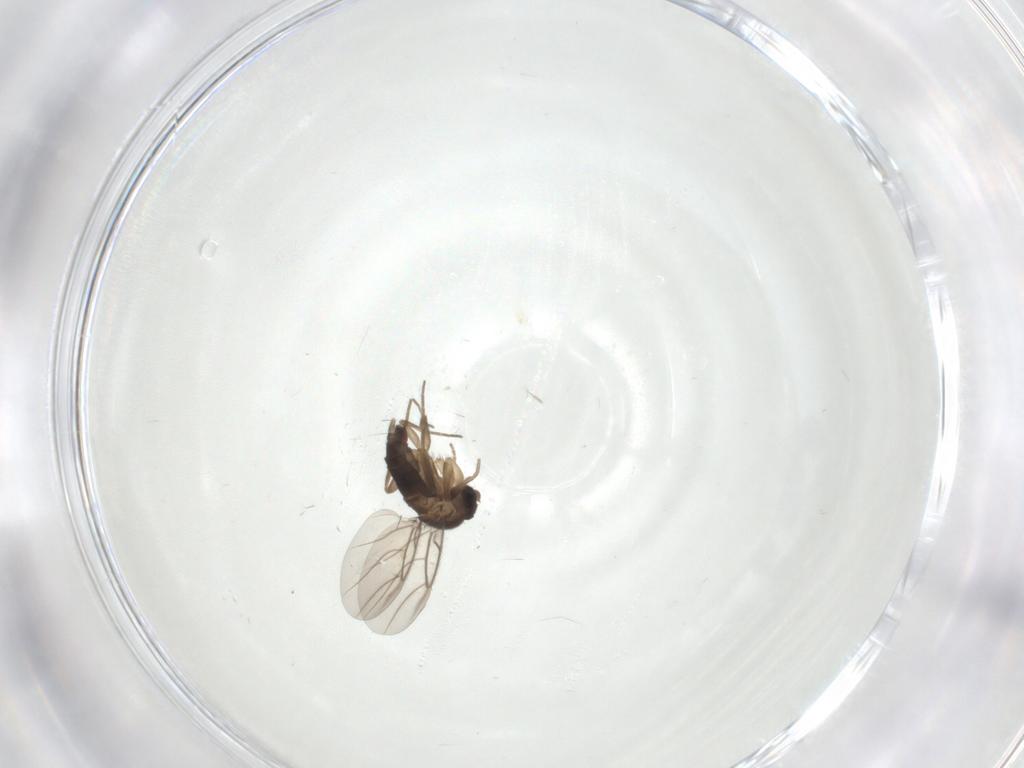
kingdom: Animalia
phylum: Arthropoda
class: Insecta
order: Diptera
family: Phoridae
